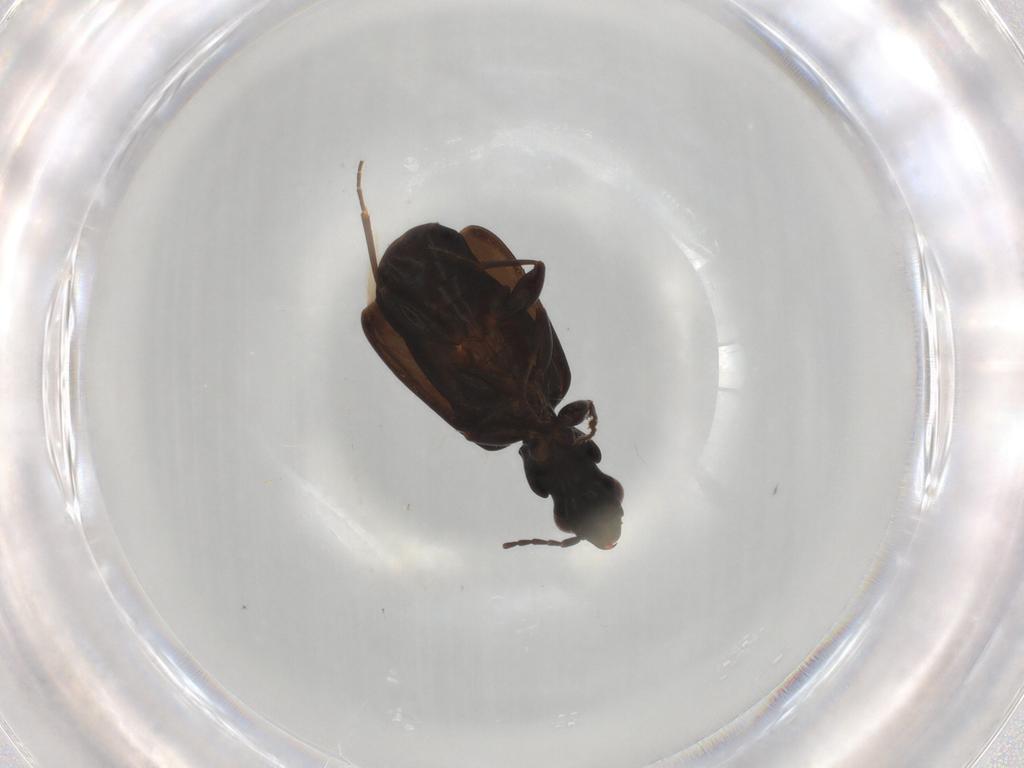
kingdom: Animalia
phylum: Arthropoda
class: Insecta
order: Coleoptera
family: Carabidae
